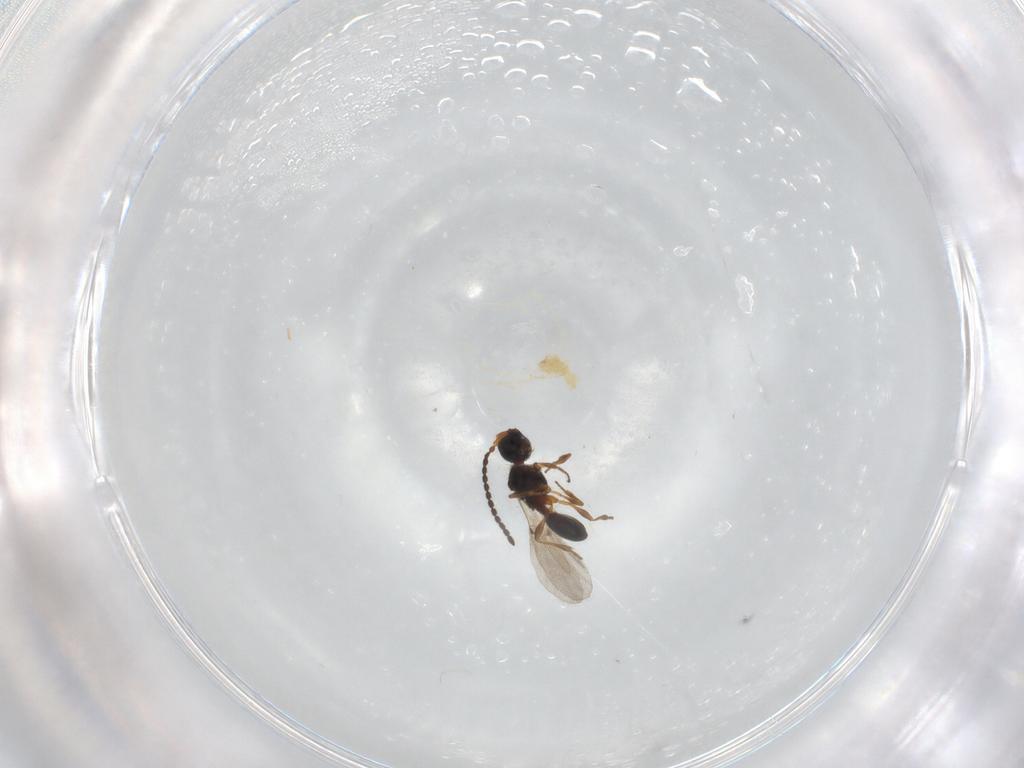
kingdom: Animalia
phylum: Arthropoda
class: Insecta
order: Hymenoptera
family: Diapriidae
